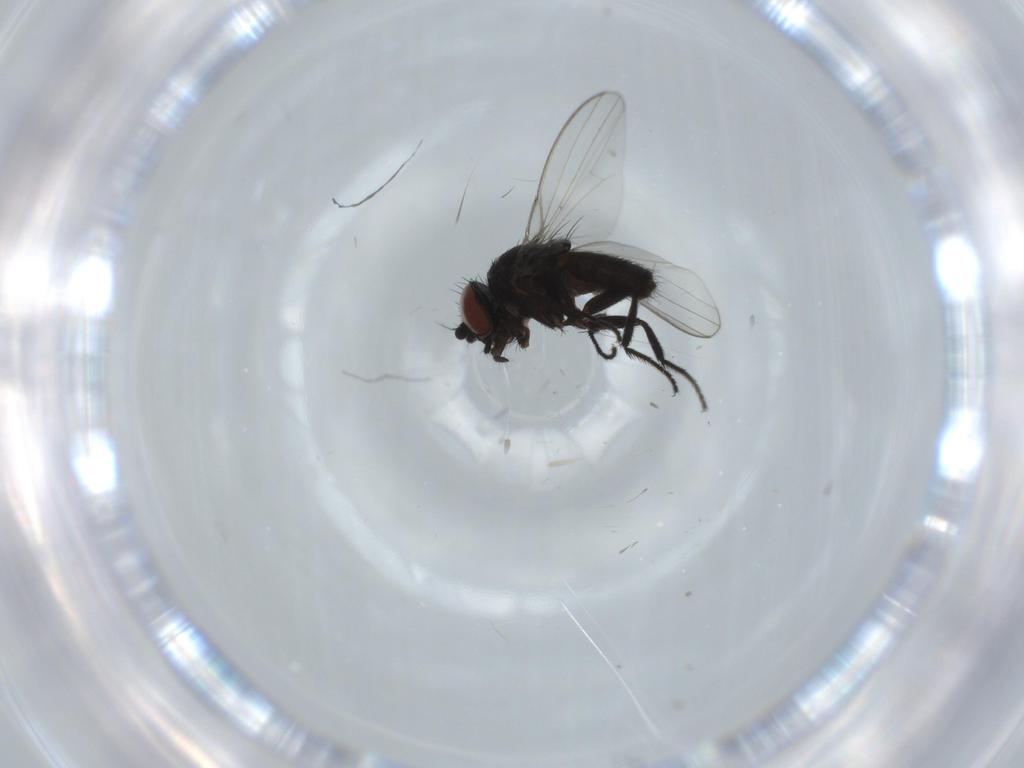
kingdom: Animalia
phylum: Arthropoda
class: Insecta
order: Diptera
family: Milichiidae
